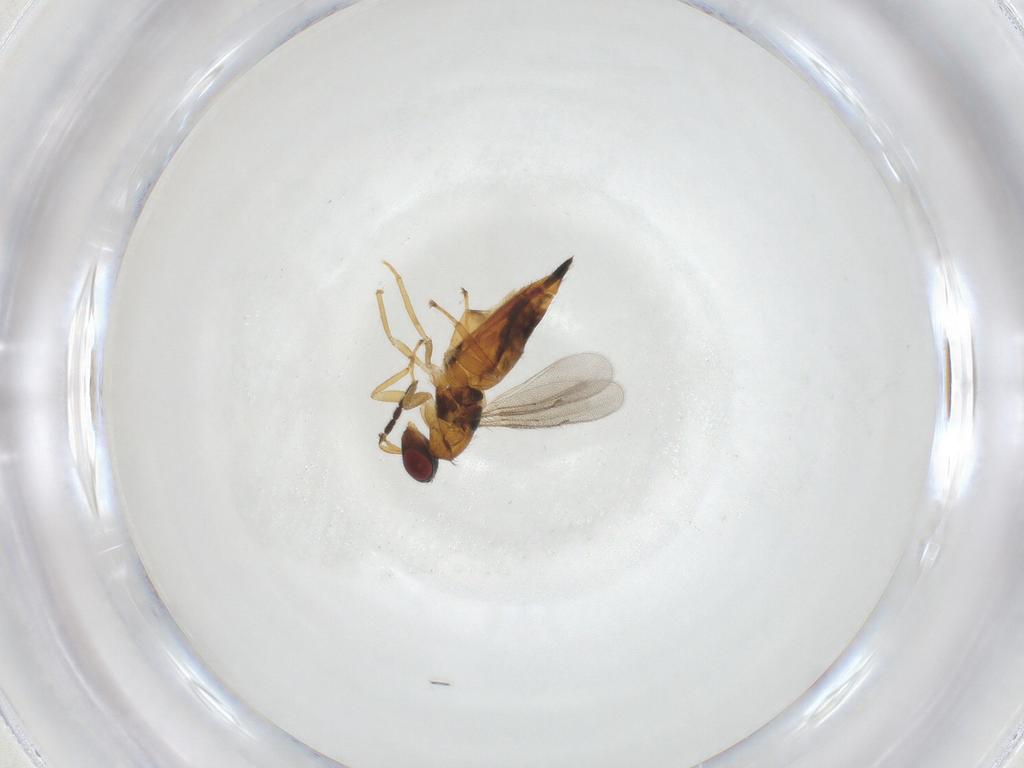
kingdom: Animalia
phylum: Arthropoda
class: Insecta
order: Hymenoptera
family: Eulophidae
